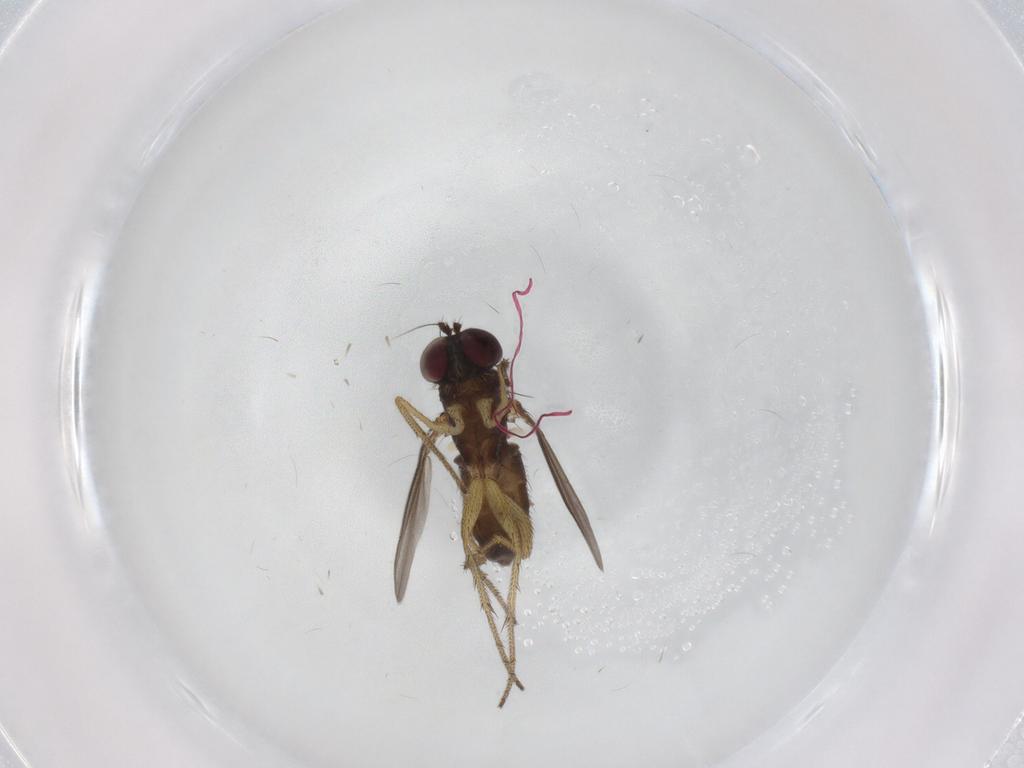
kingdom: Animalia
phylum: Arthropoda
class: Insecta
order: Diptera
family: Dolichopodidae
